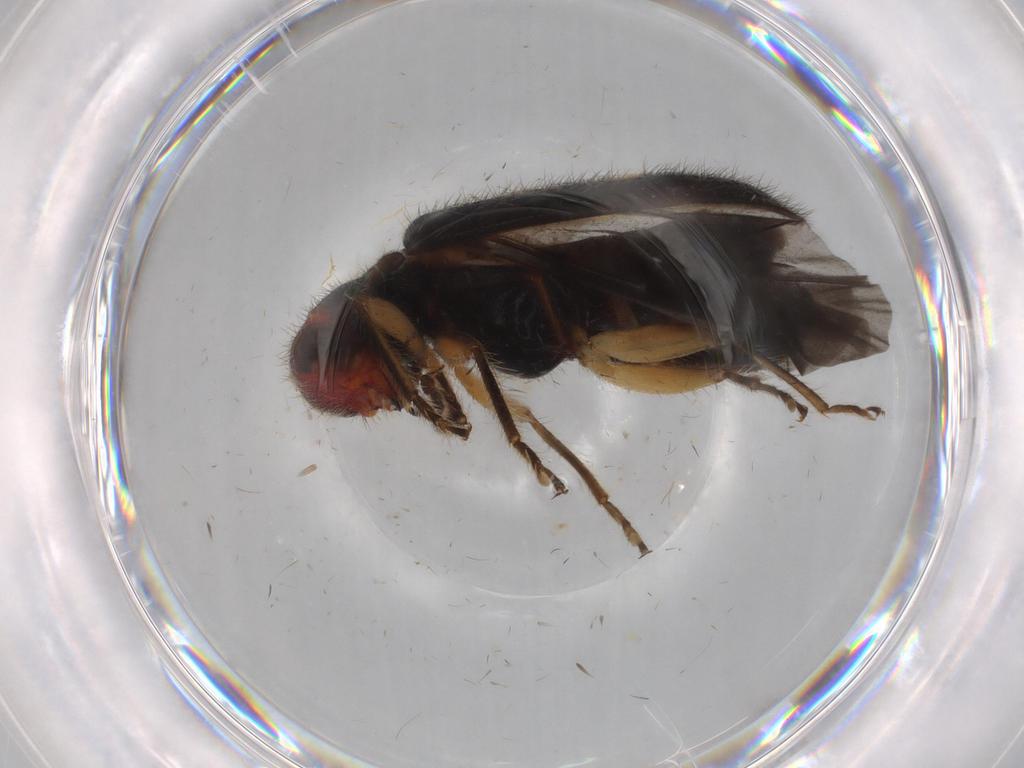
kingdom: Animalia
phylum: Arthropoda
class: Insecta
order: Coleoptera
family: Cleridae
